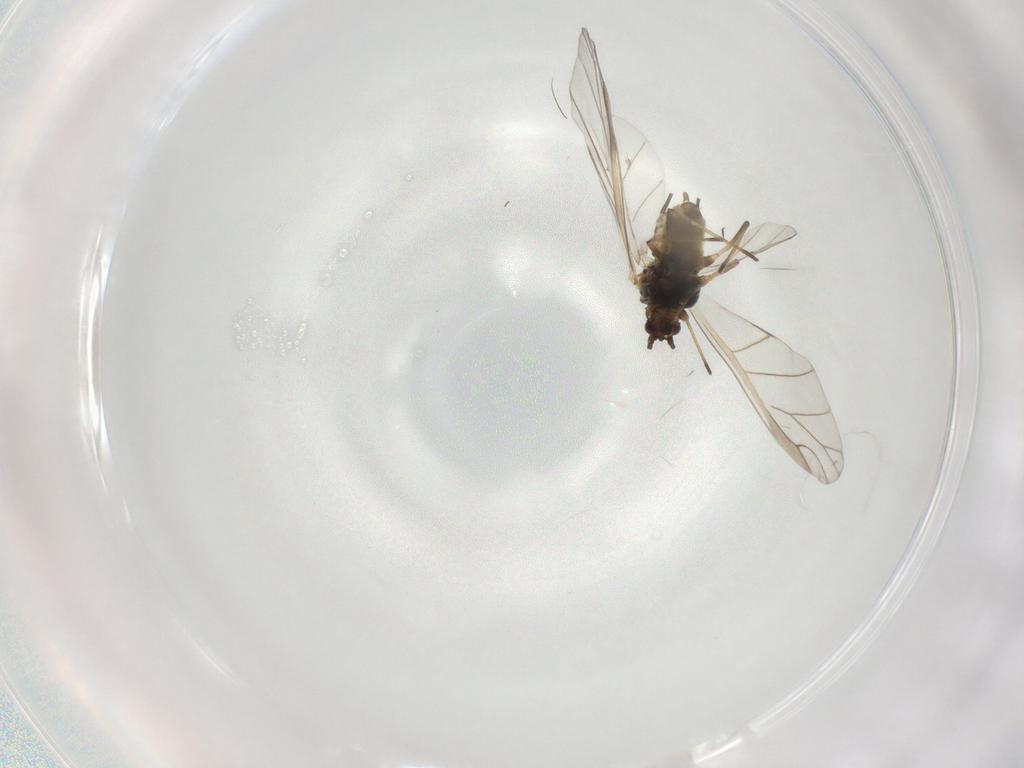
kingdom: Animalia
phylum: Arthropoda
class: Insecta
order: Hemiptera
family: Aphididae
